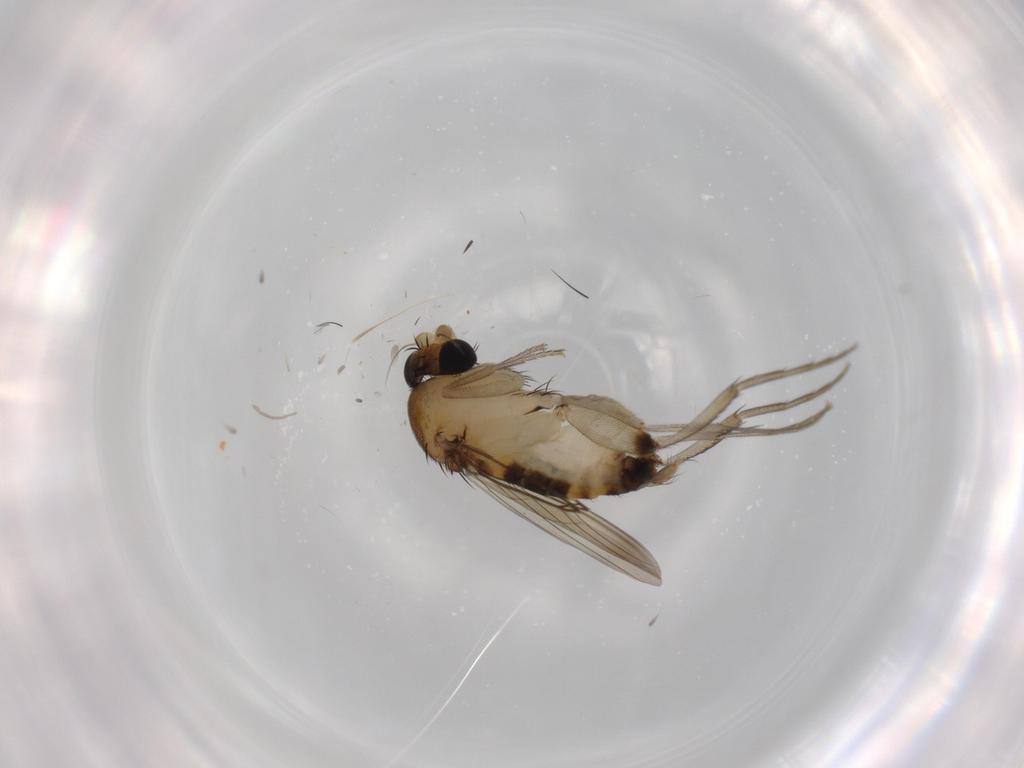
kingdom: Animalia
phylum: Arthropoda
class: Insecta
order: Diptera
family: Phoridae
